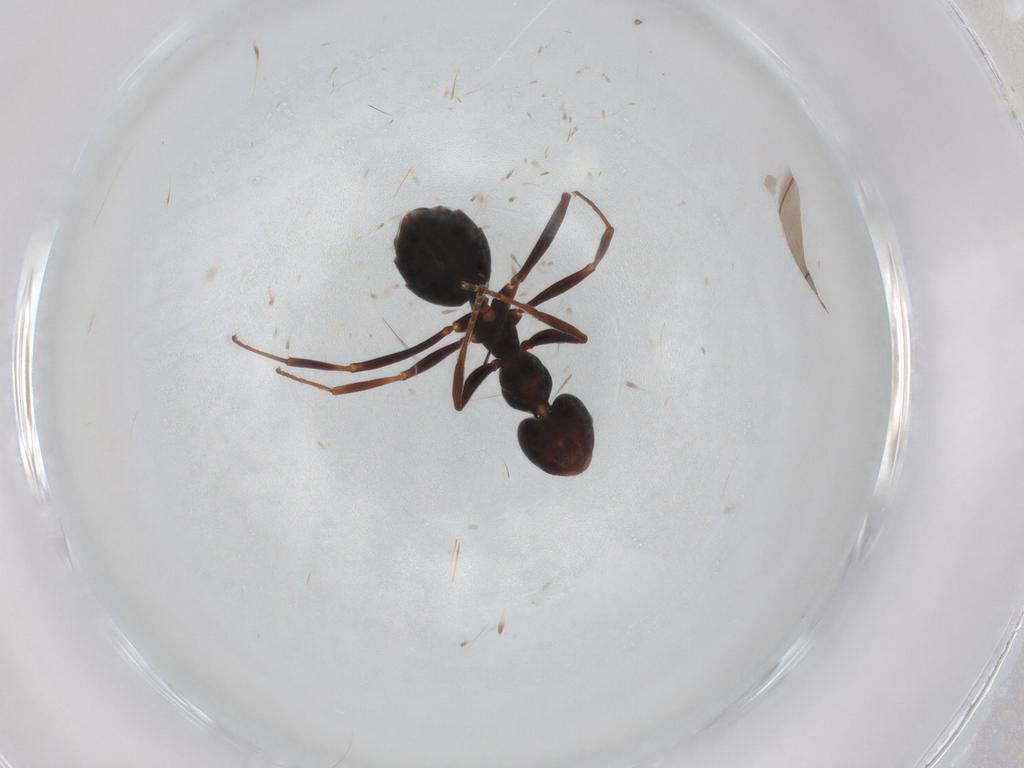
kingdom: Animalia
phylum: Arthropoda
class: Insecta
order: Hymenoptera
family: Formicidae
